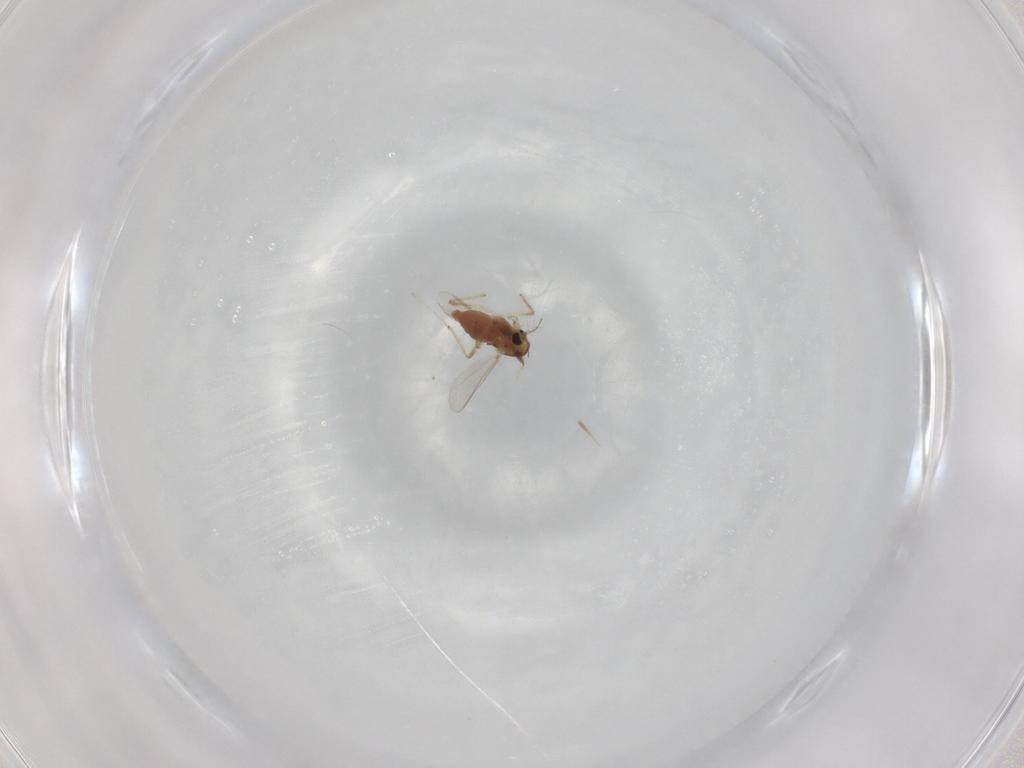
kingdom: Animalia
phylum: Arthropoda
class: Insecta
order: Diptera
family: Chironomidae
